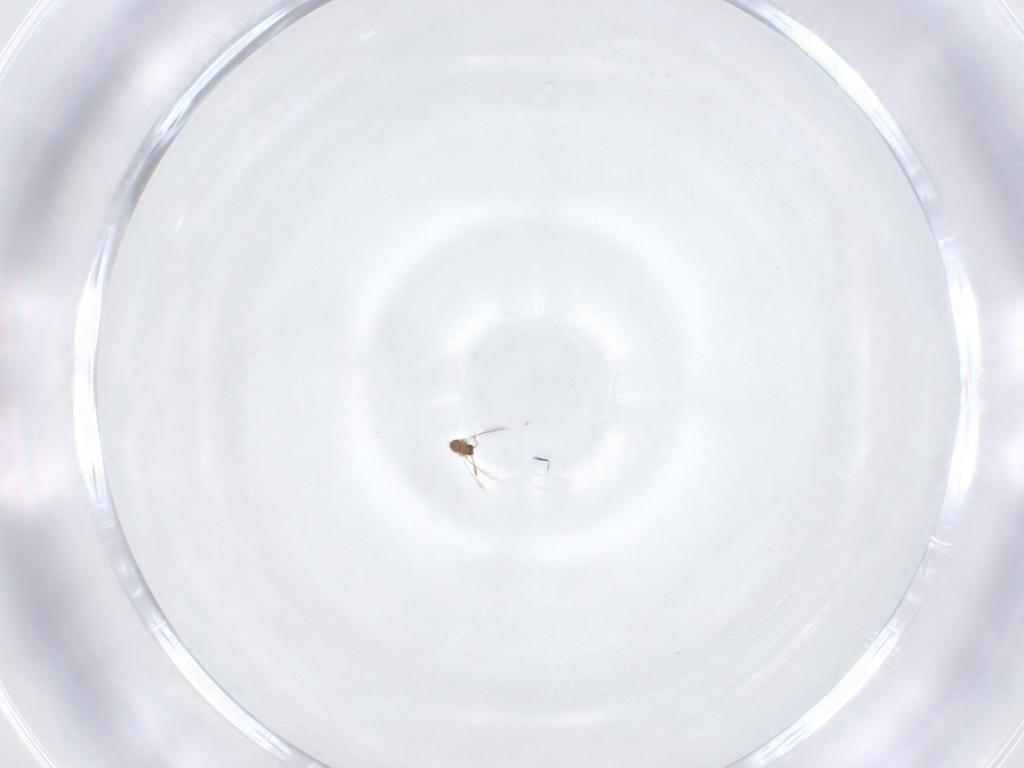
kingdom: Animalia
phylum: Arthropoda
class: Insecta
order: Hymenoptera
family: Mymaridae
